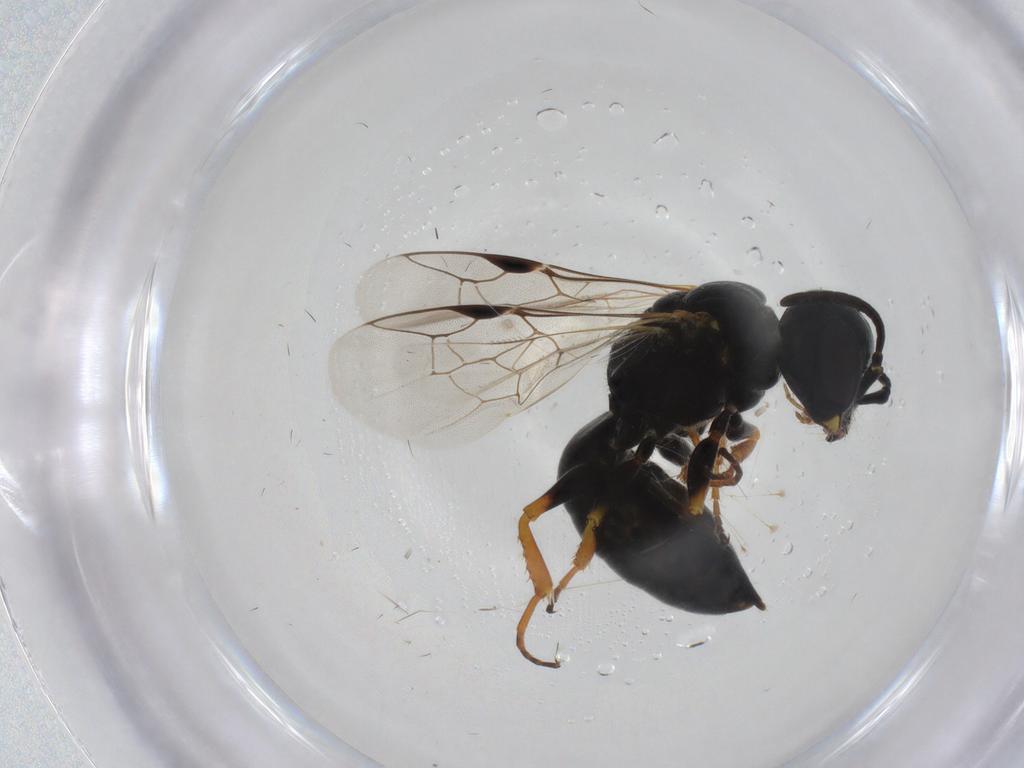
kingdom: Animalia
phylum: Arthropoda
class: Insecta
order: Hymenoptera
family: Pemphredonidae
